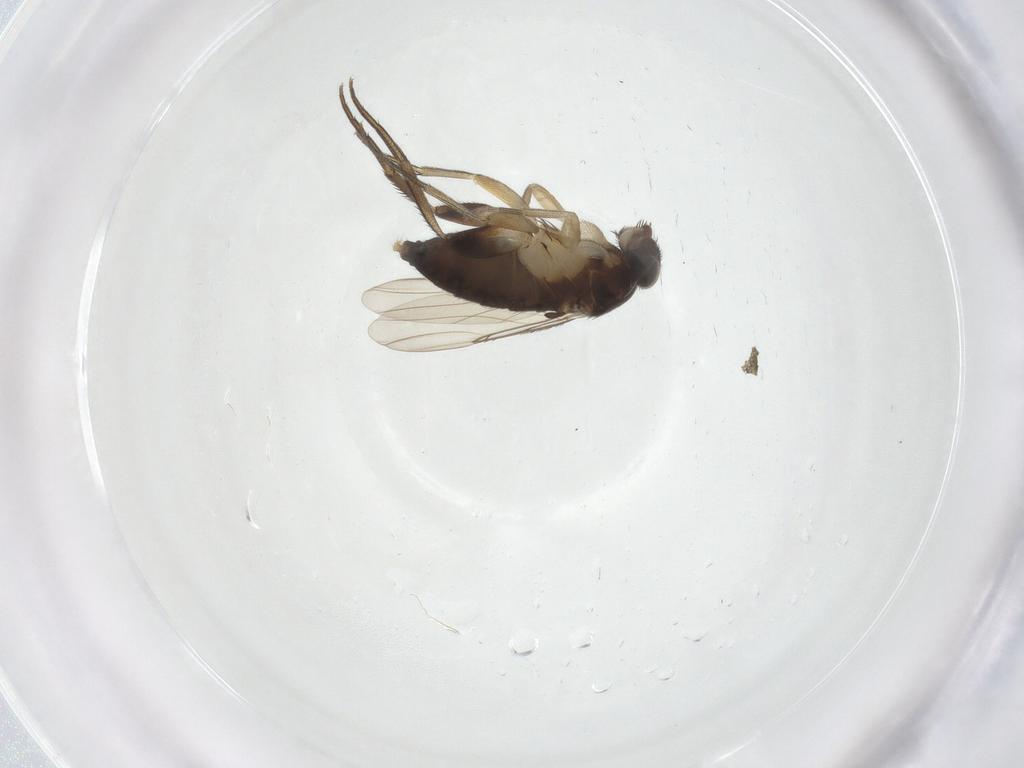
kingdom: Animalia
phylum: Arthropoda
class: Insecta
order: Diptera
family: Phoridae
